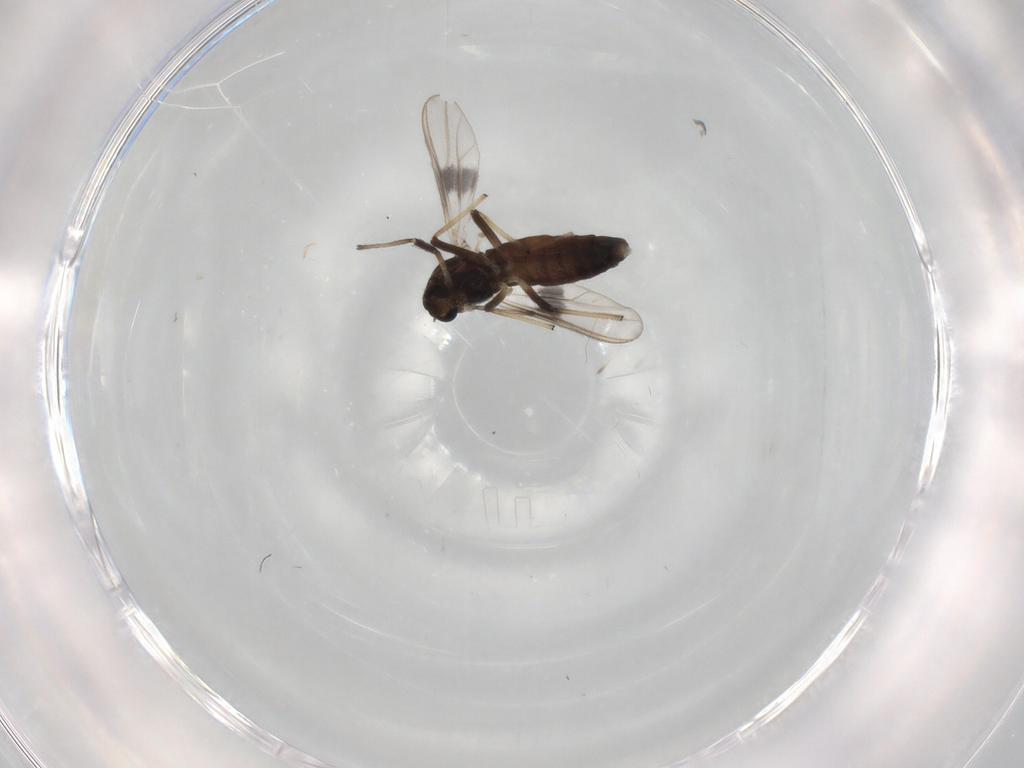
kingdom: Animalia
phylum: Arthropoda
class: Insecta
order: Diptera
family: Chironomidae
